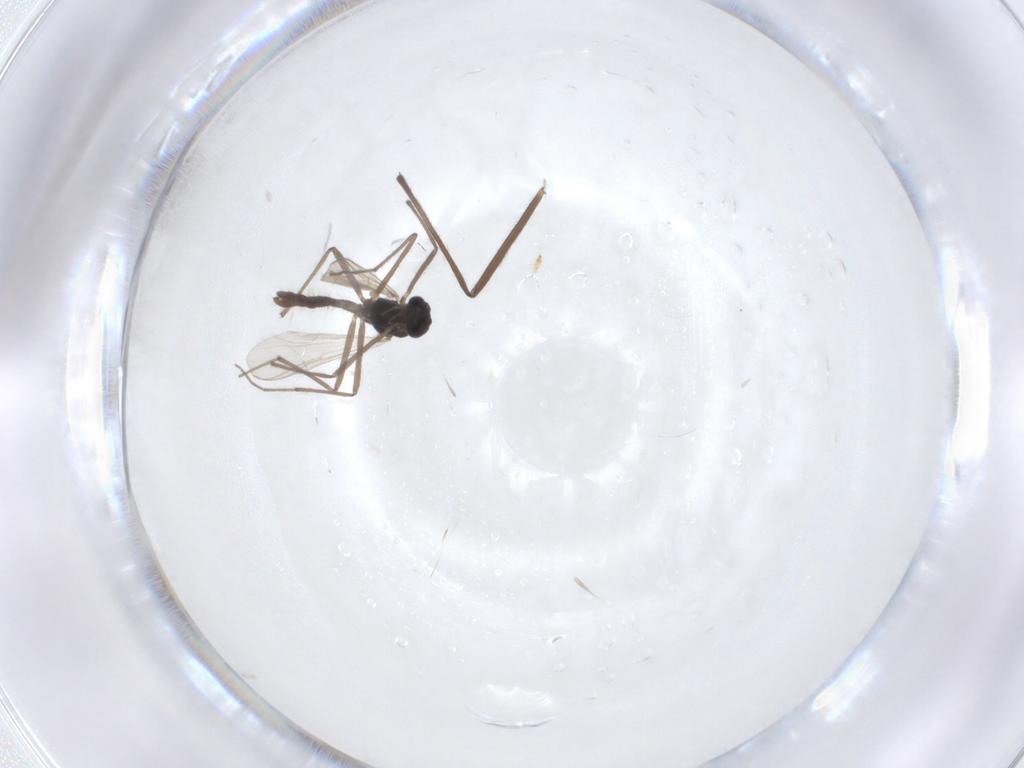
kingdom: Animalia
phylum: Arthropoda
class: Insecta
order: Diptera
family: Chironomidae
